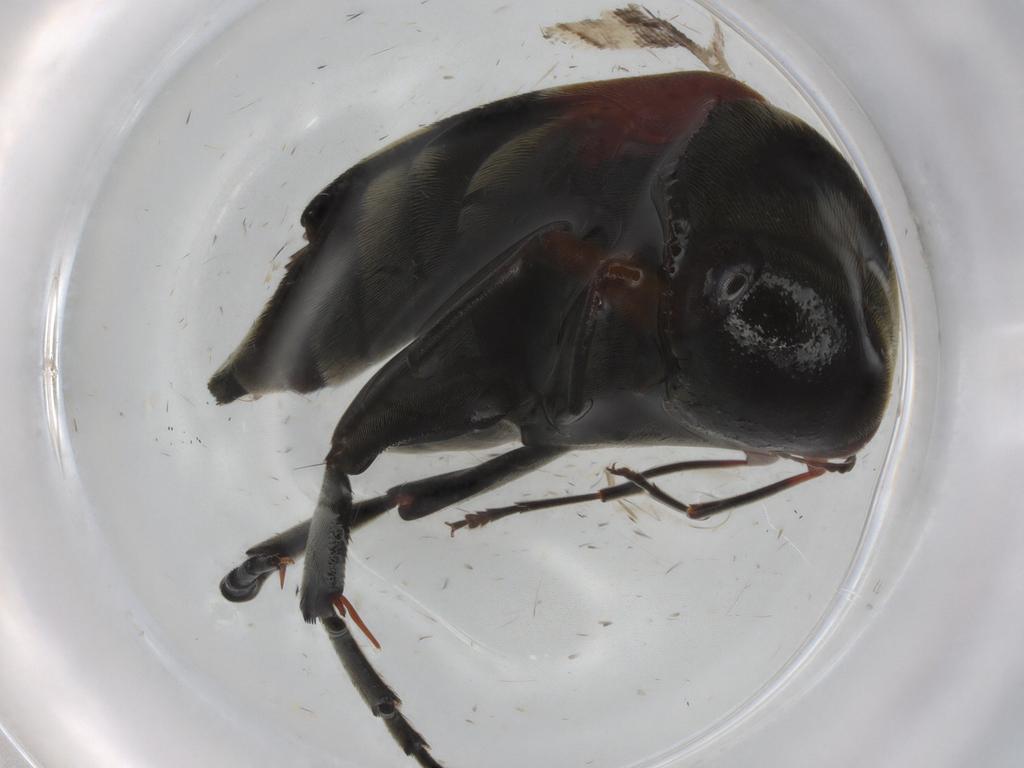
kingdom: Animalia
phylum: Arthropoda
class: Insecta
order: Coleoptera
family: Mordellidae
